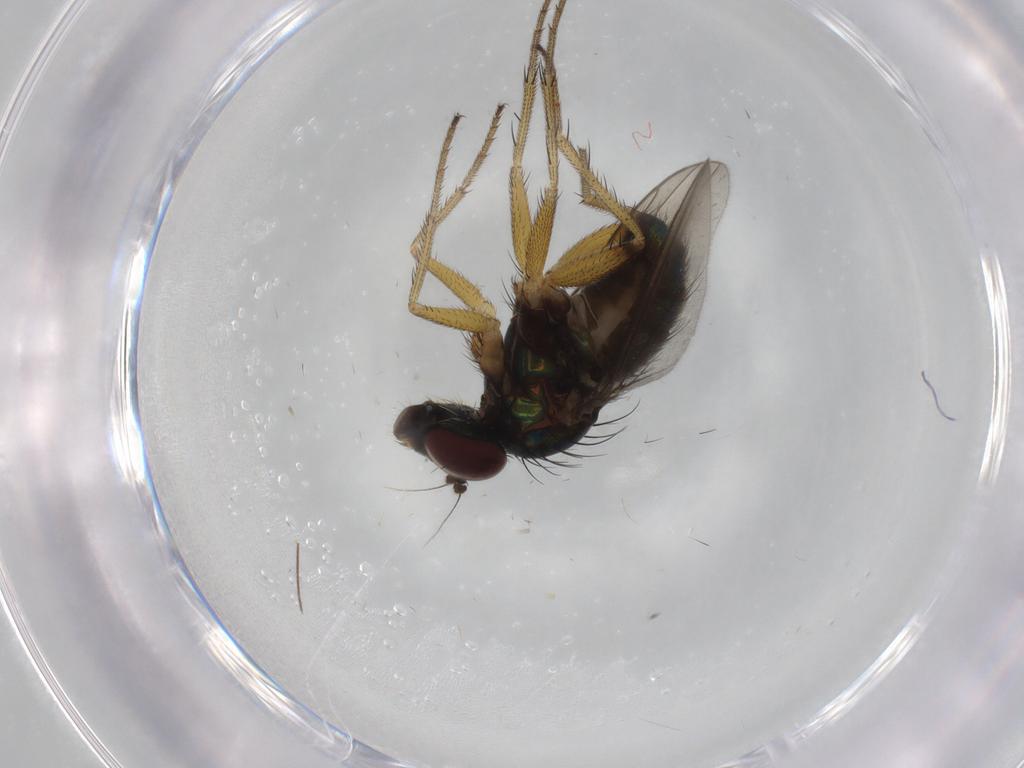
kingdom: Animalia
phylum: Arthropoda
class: Insecta
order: Diptera
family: Dolichopodidae
